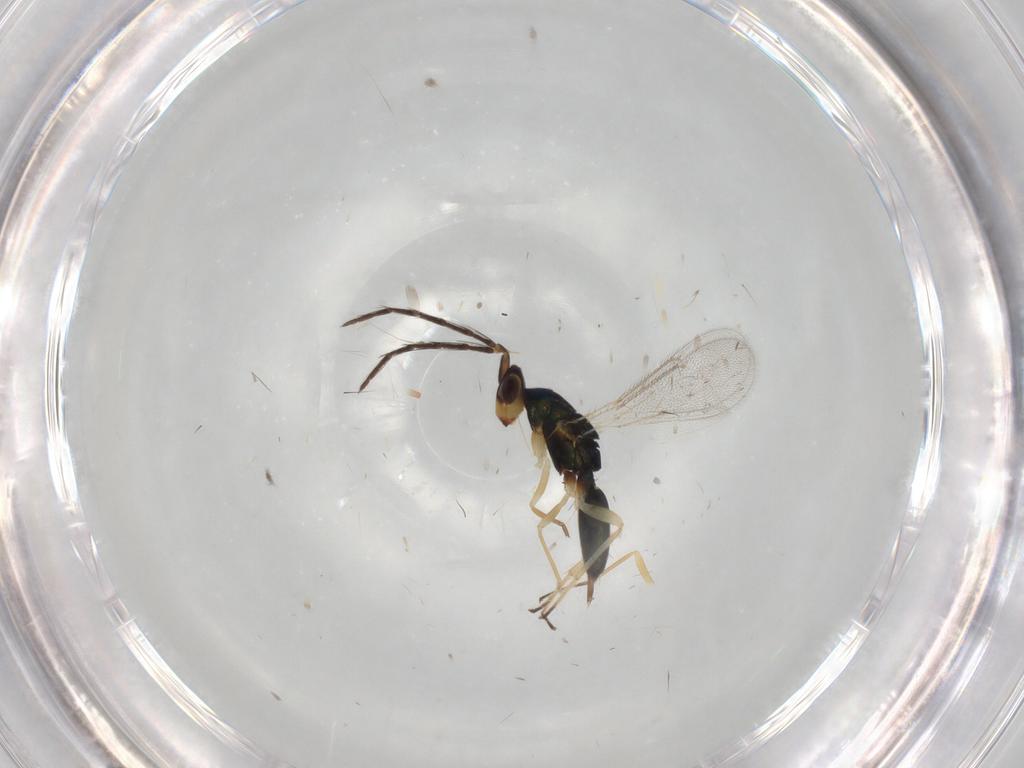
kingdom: Animalia
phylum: Arthropoda
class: Insecta
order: Hymenoptera
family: Eulophidae
